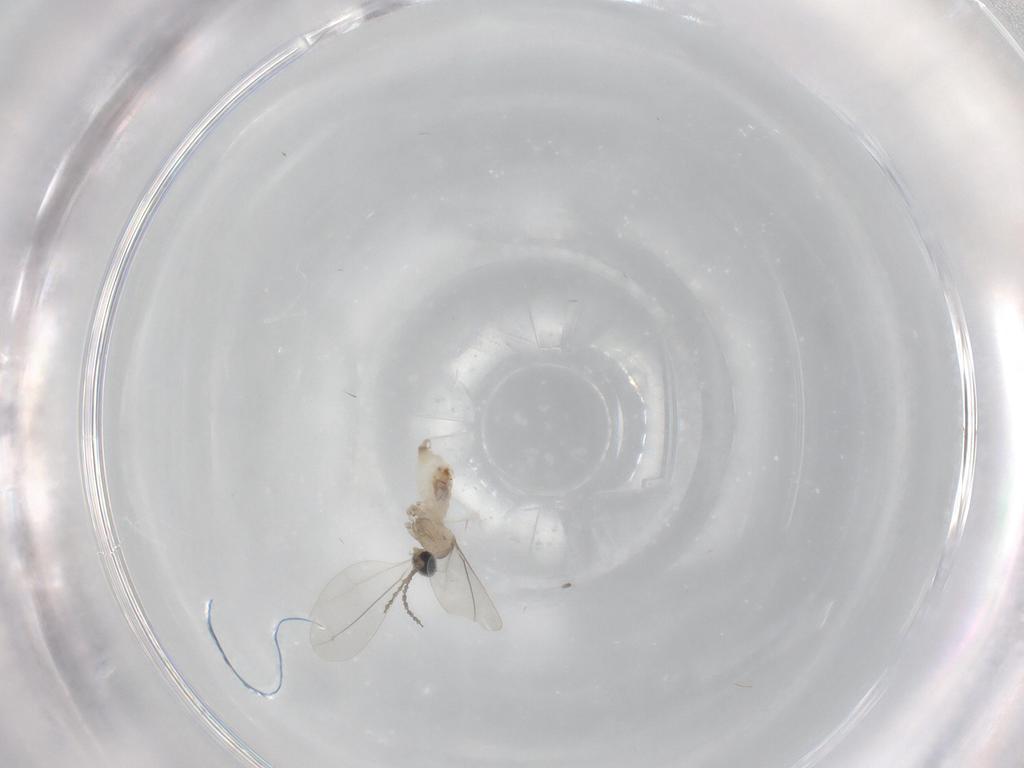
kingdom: Animalia
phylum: Arthropoda
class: Insecta
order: Diptera
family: Cecidomyiidae
